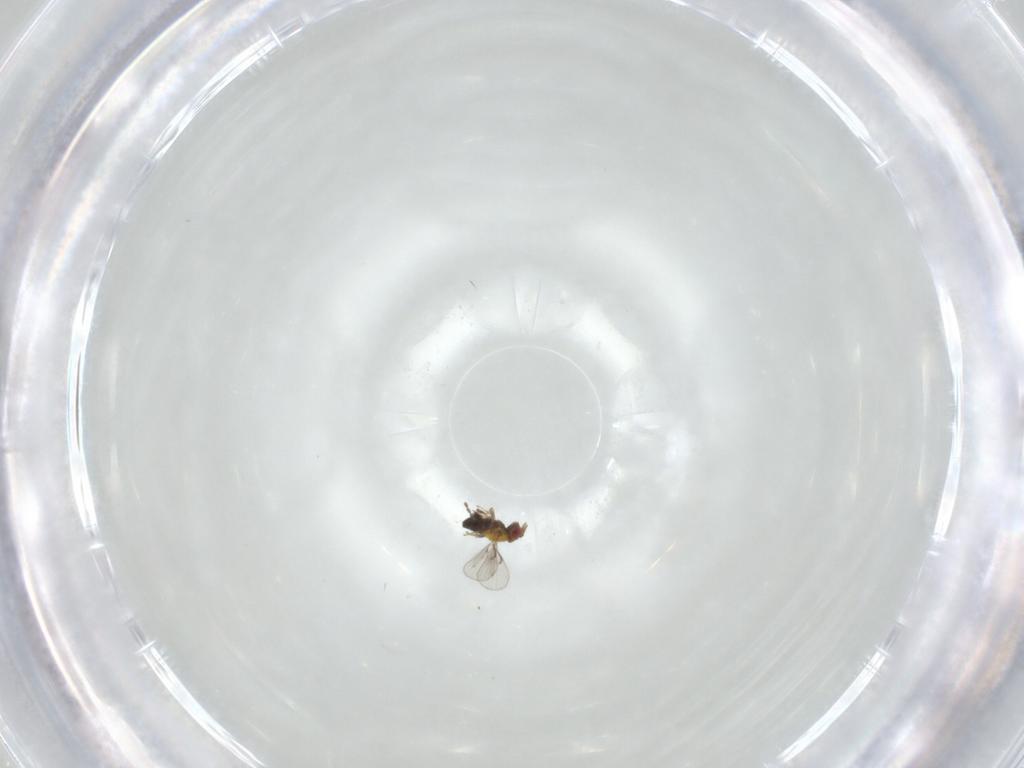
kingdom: Animalia
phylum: Arthropoda
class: Insecta
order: Hymenoptera
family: Trichogrammatidae
